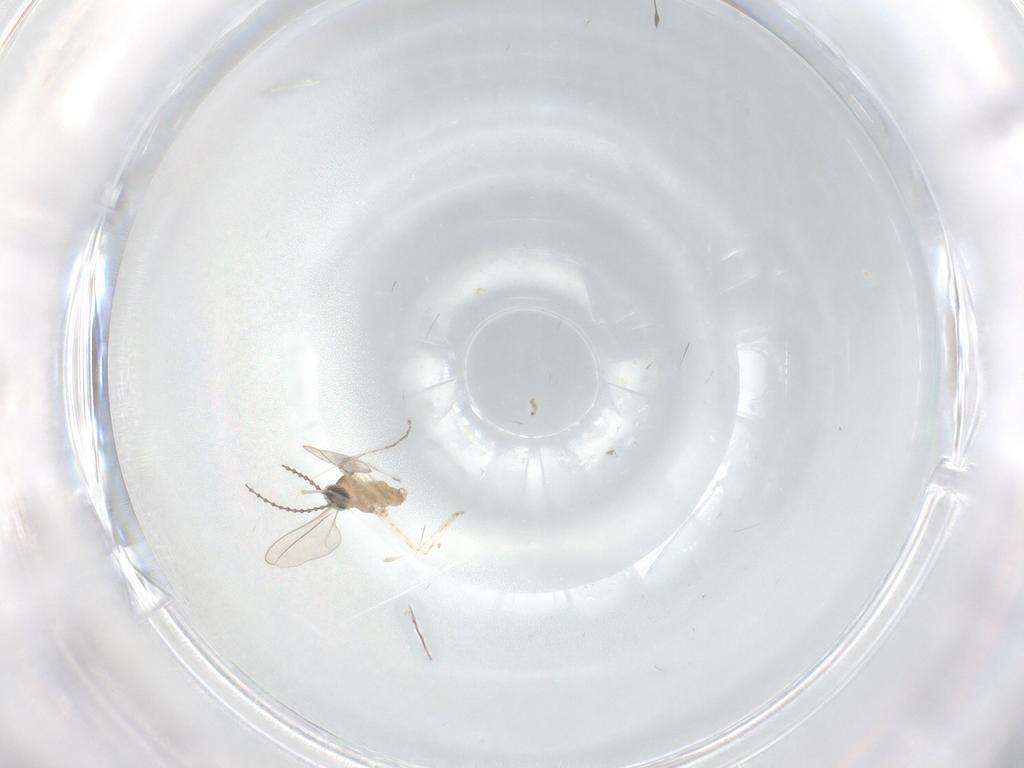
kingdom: Animalia
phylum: Arthropoda
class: Insecta
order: Diptera
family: Cecidomyiidae
